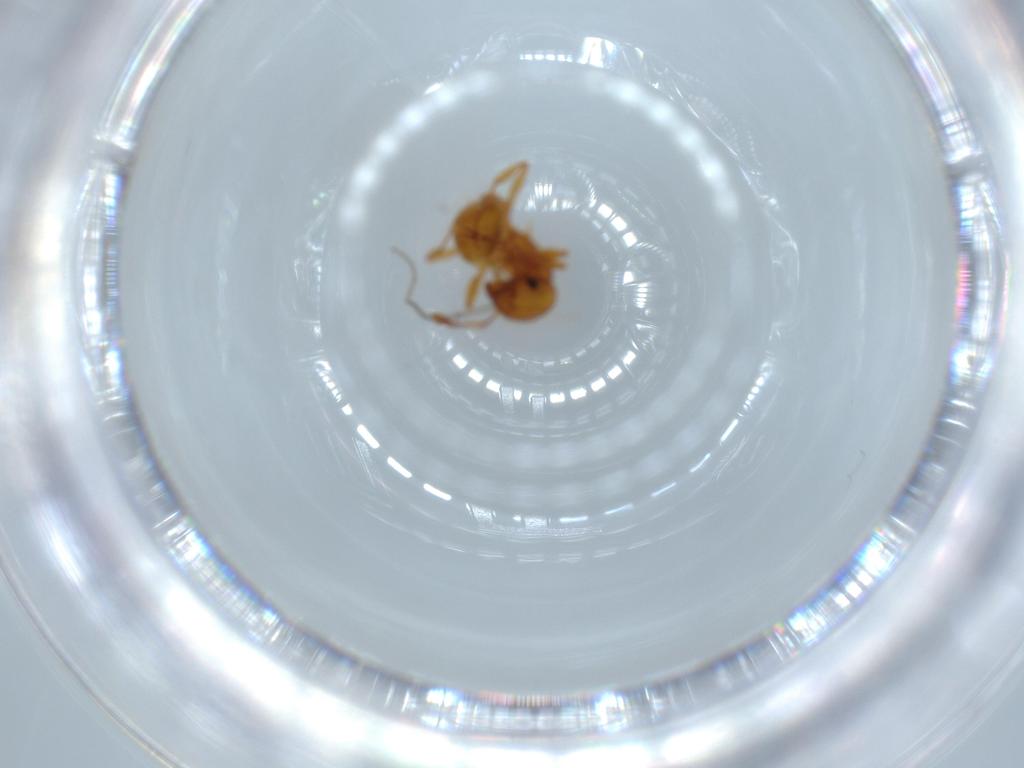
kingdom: Animalia
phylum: Arthropoda
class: Insecta
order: Hymenoptera
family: Formicidae
